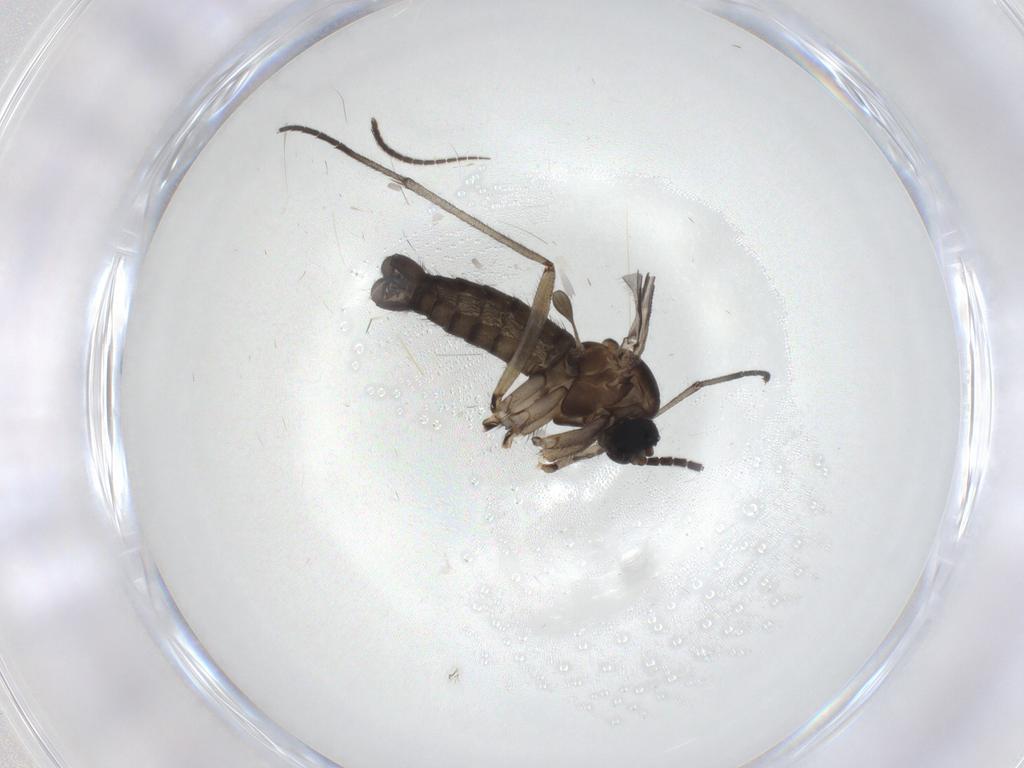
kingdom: Animalia
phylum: Arthropoda
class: Insecta
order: Diptera
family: Sciaridae
